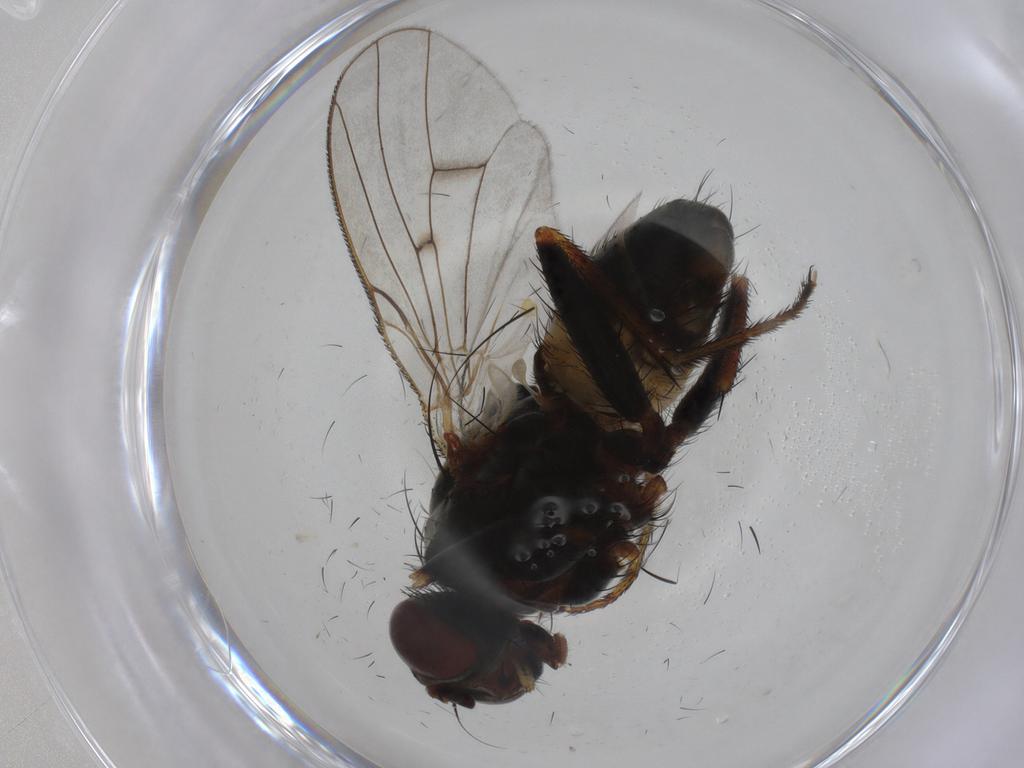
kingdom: Animalia
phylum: Arthropoda
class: Insecta
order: Diptera
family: Muscidae
